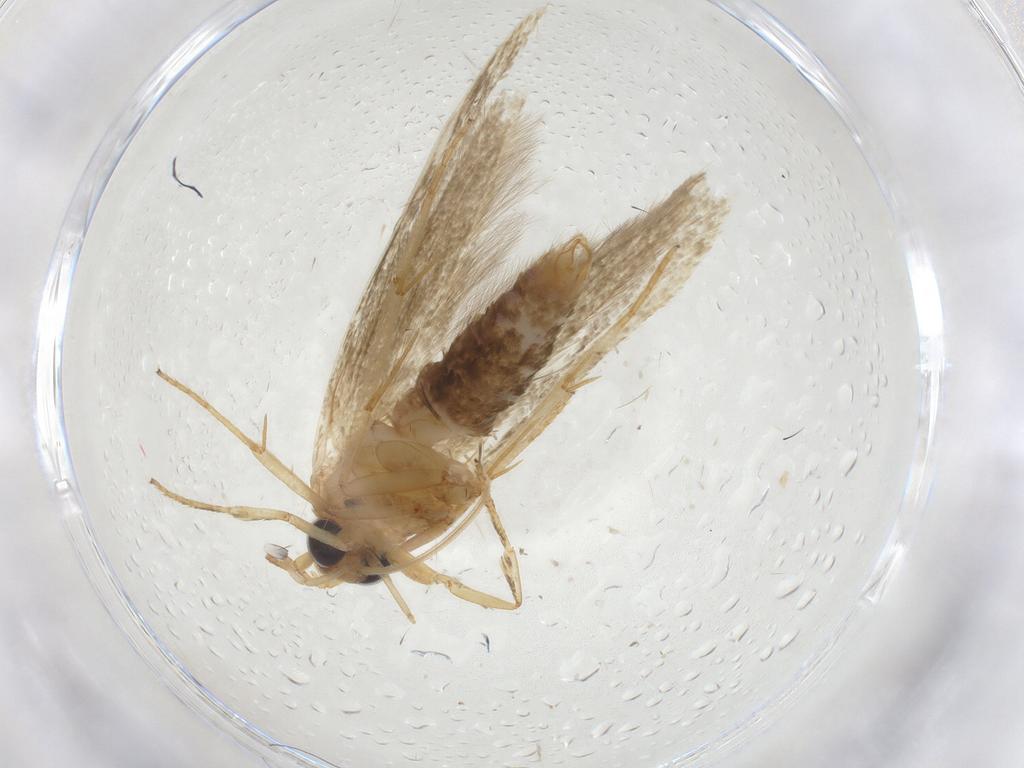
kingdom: Animalia
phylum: Arthropoda
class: Insecta
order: Lepidoptera
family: Blastobasidae
